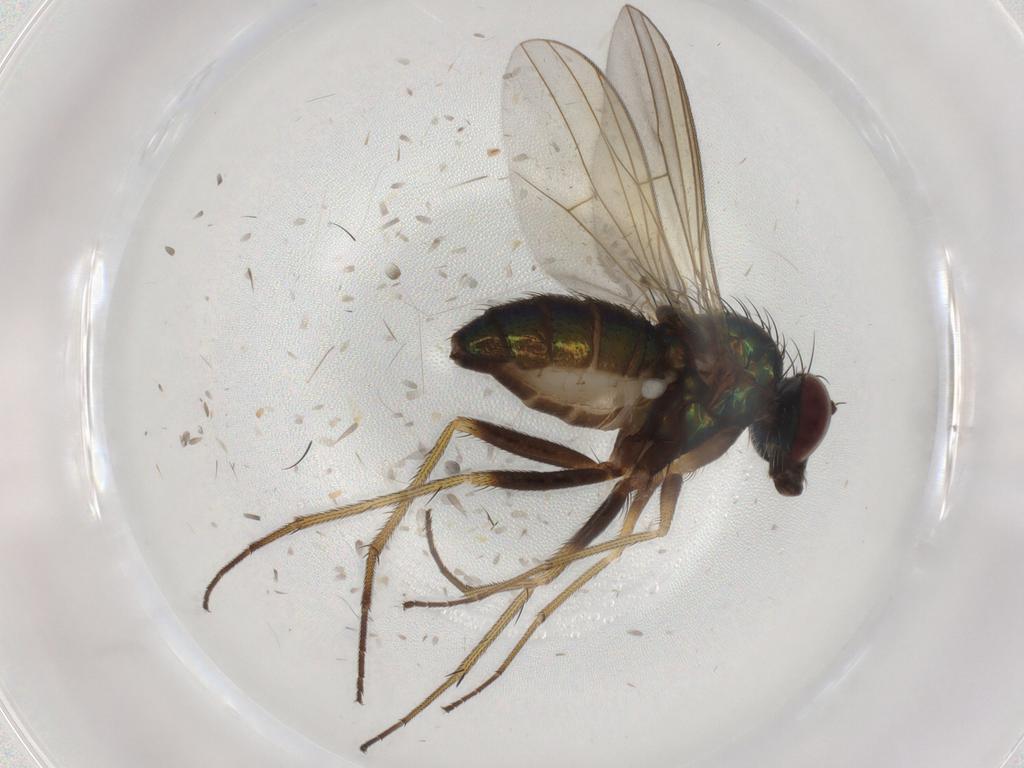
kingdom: Animalia
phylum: Arthropoda
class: Insecta
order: Diptera
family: Dolichopodidae
